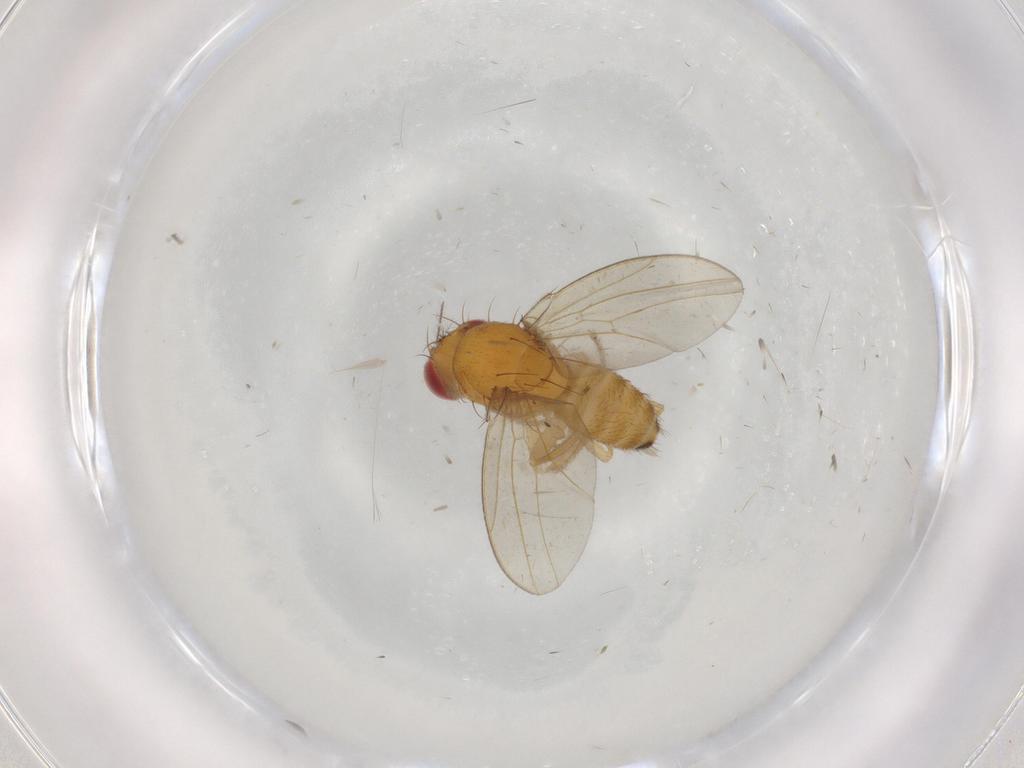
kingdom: Animalia
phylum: Arthropoda
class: Insecta
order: Diptera
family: Drosophilidae
